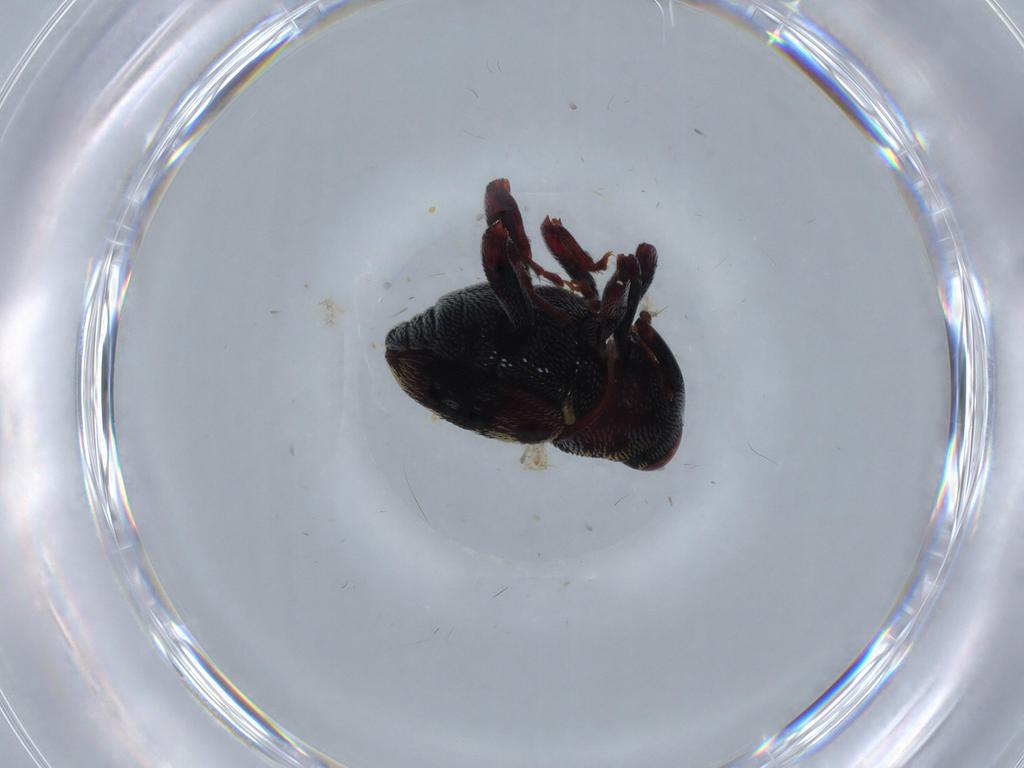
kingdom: Animalia
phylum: Arthropoda
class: Insecta
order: Coleoptera
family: Curculionidae
